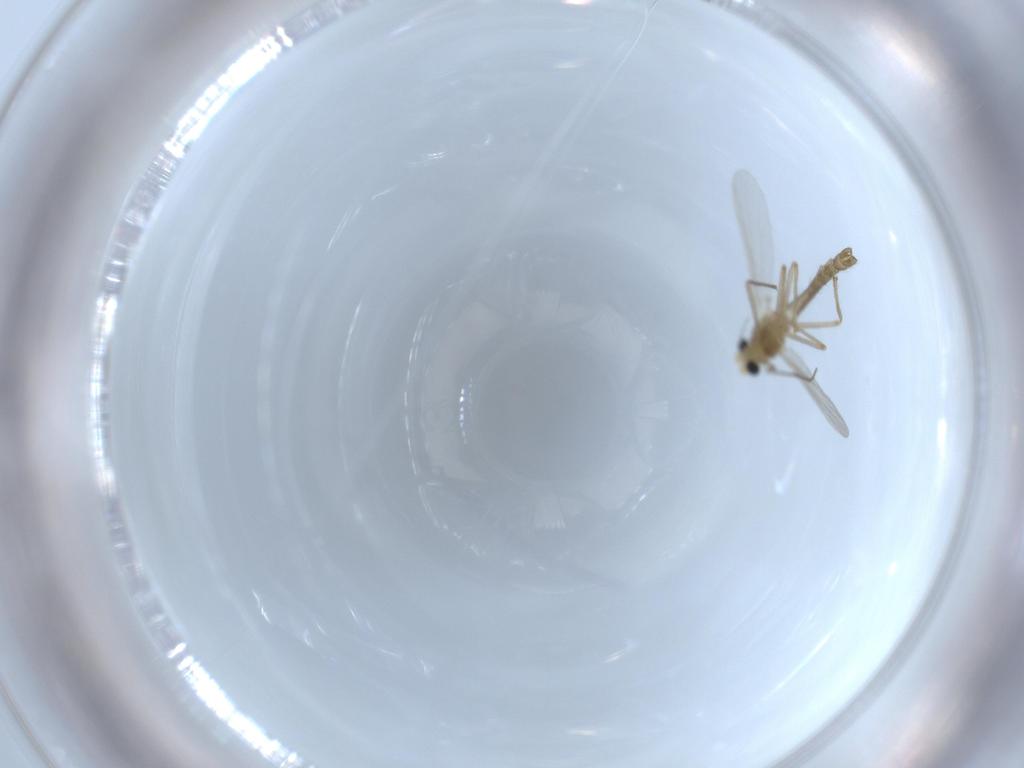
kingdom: Animalia
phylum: Arthropoda
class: Insecta
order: Diptera
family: Chironomidae
